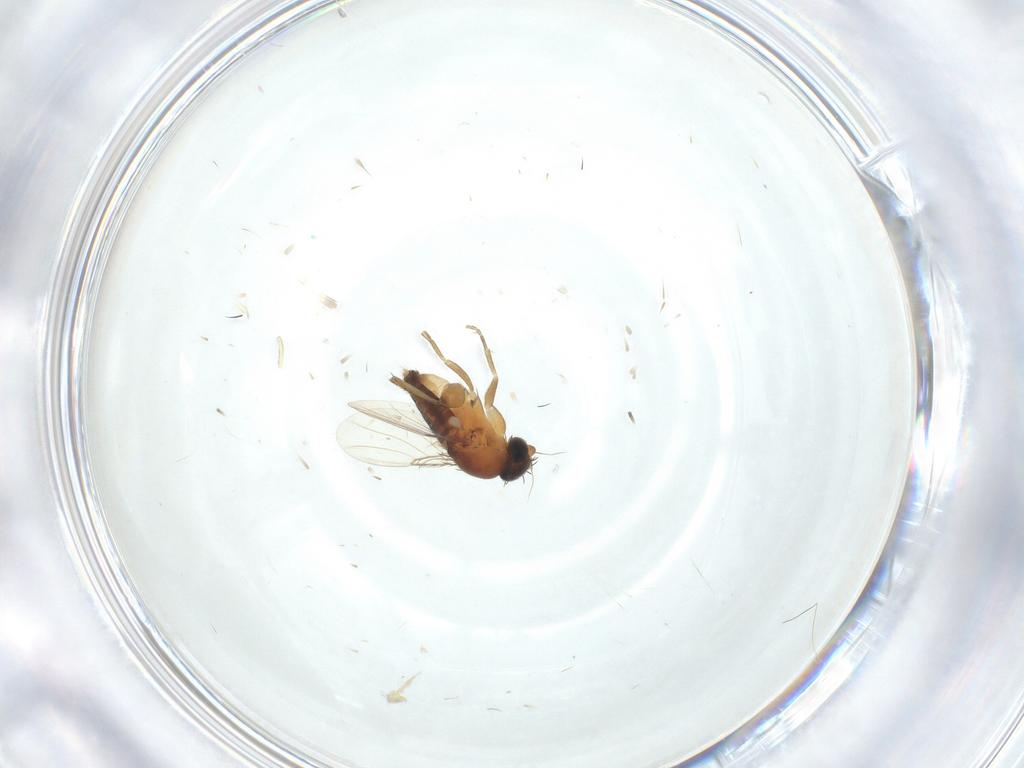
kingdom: Animalia
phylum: Arthropoda
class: Insecta
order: Diptera
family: Phoridae
